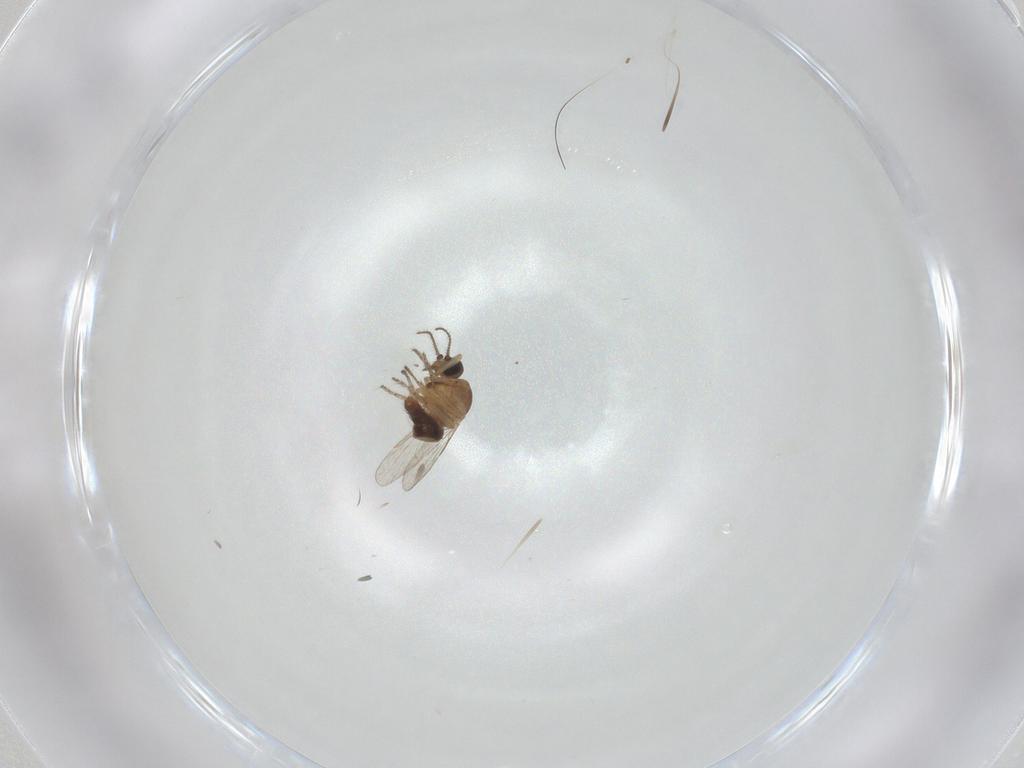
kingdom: Animalia
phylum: Arthropoda
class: Insecta
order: Diptera
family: Ceratopogonidae
